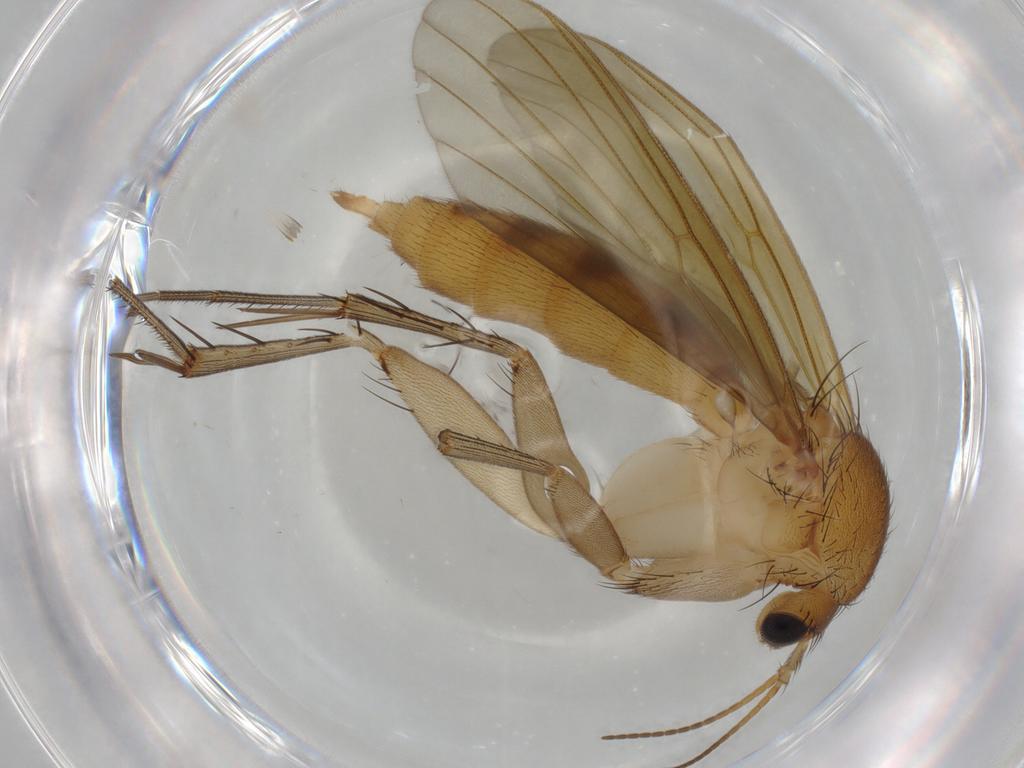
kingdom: Animalia
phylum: Arthropoda
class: Insecta
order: Diptera
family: Mycetophilidae
